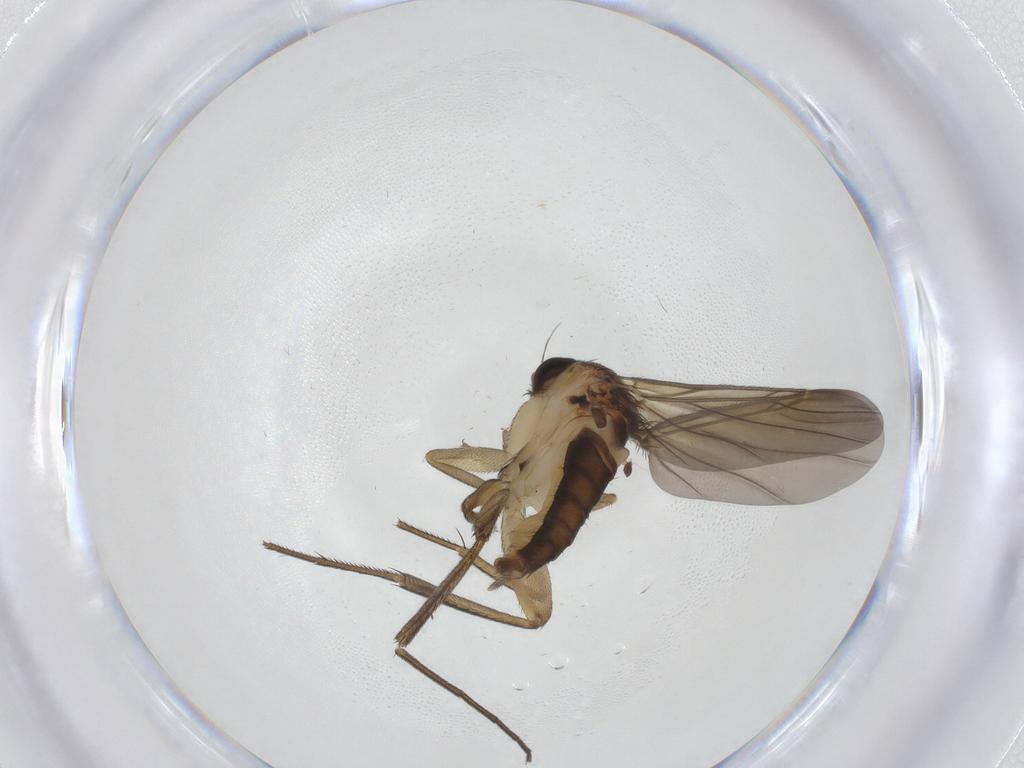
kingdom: Animalia
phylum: Arthropoda
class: Insecta
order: Diptera
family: Phoridae
